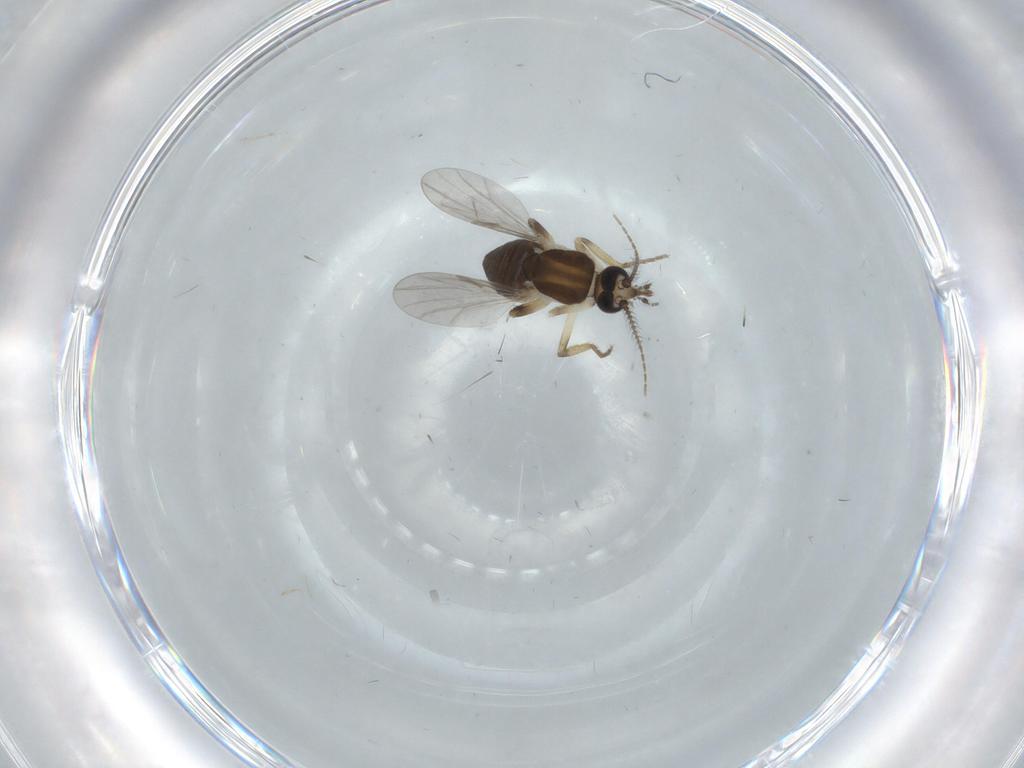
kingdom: Animalia
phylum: Arthropoda
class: Insecta
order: Diptera
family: Ceratopogonidae
